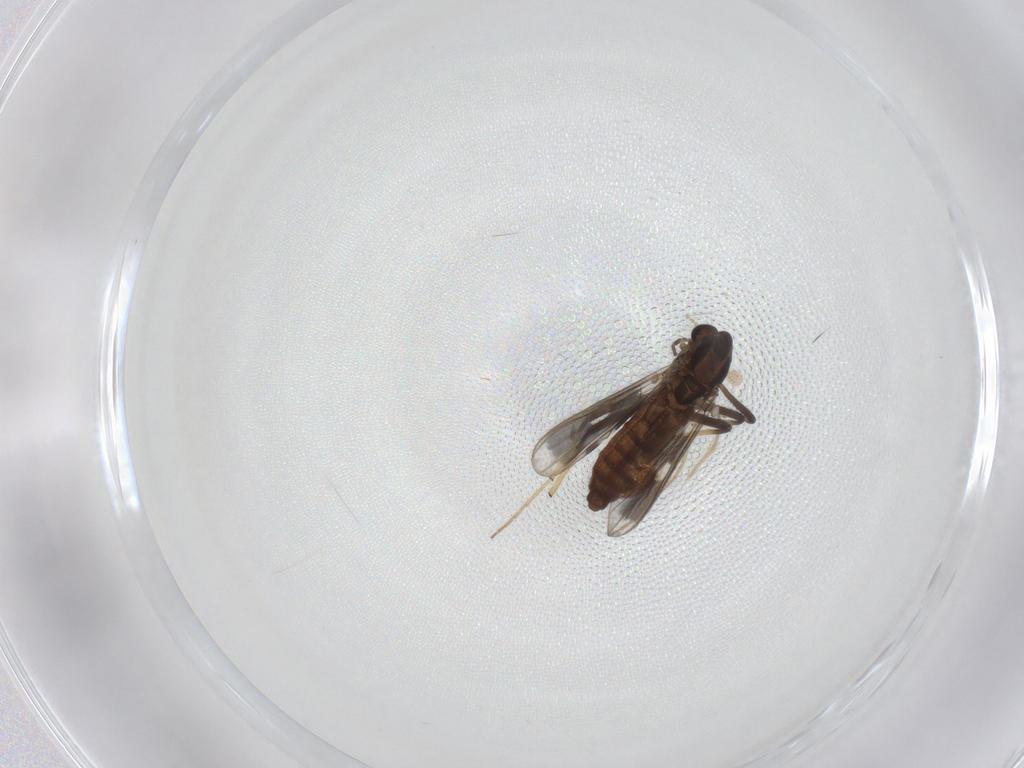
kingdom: Animalia
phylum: Arthropoda
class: Insecta
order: Diptera
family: Chironomidae
